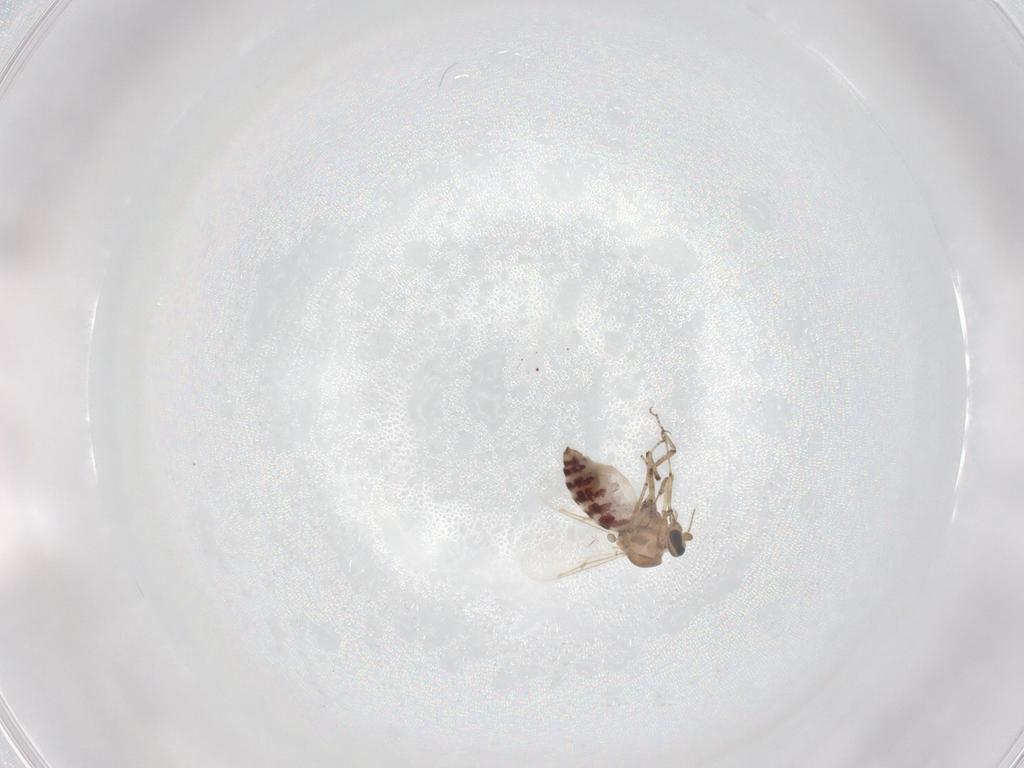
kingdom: Animalia
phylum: Arthropoda
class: Insecta
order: Diptera
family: Ceratopogonidae
